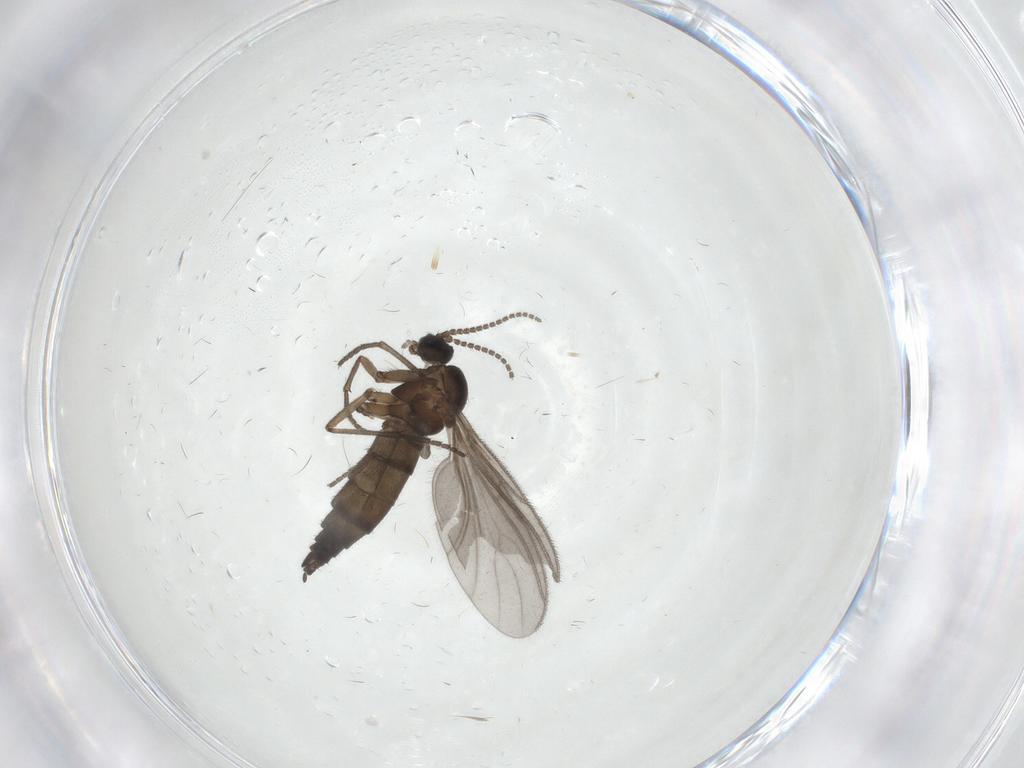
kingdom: Animalia
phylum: Arthropoda
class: Insecta
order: Diptera
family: Sciaridae
